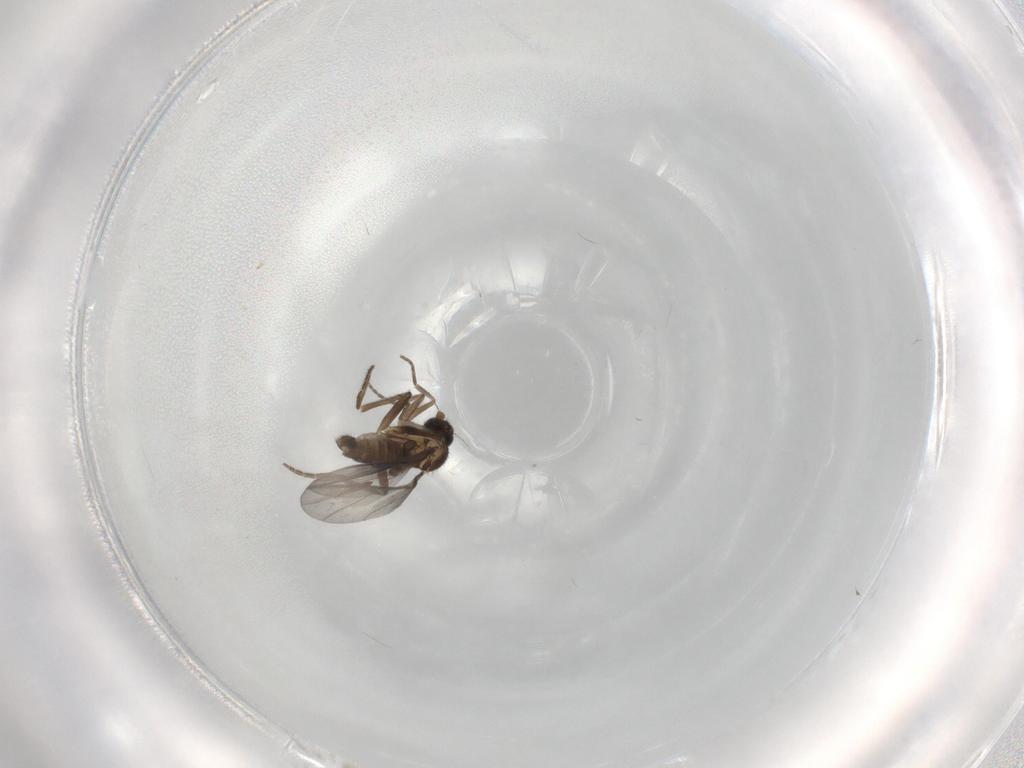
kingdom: Animalia
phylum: Arthropoda
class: Insecta
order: Diptera
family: Phoridae
